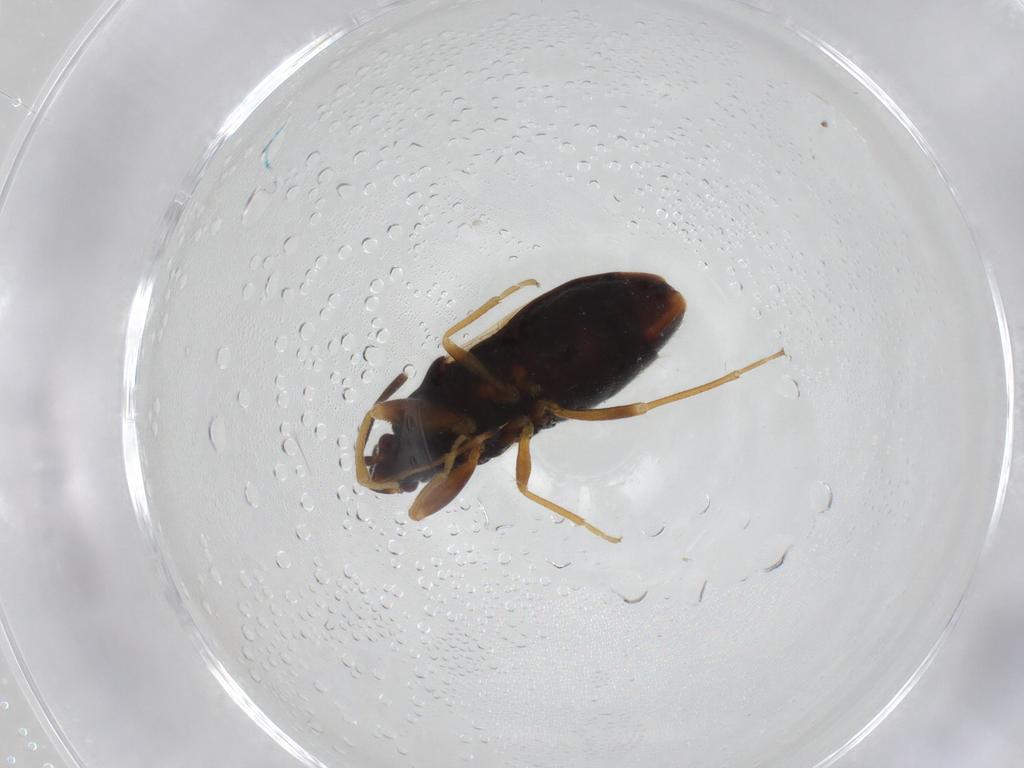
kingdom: Animalia
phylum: Arthropoda
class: Insecta
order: Hemiptera
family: Rhyparochromidae
